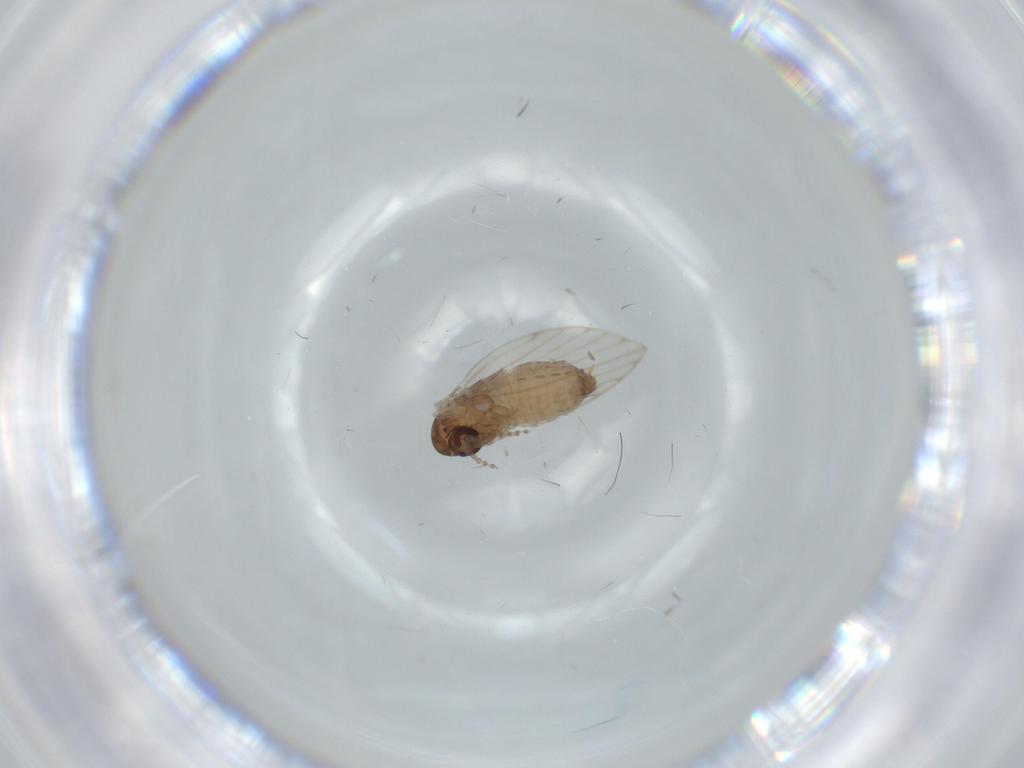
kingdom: Animalia
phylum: Arthropoda
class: Insecta
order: Diptera
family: Psychodidae
